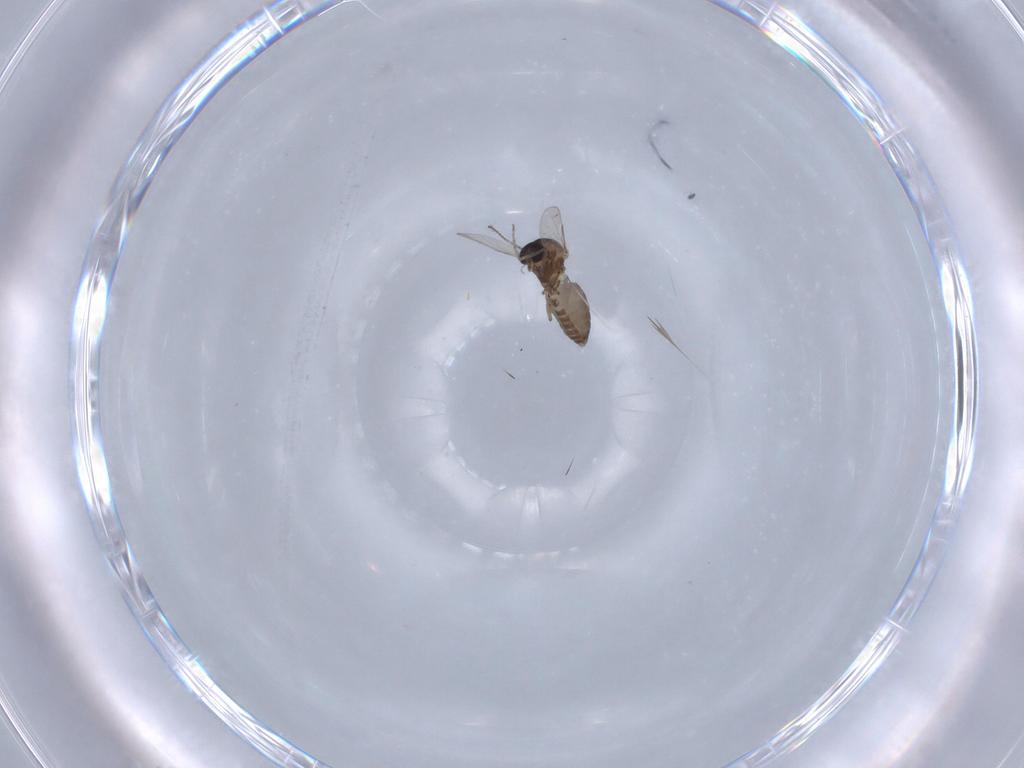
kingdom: Animalia
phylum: Arthropoda
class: Insecta
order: Diptera
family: Ceratopogonidae
